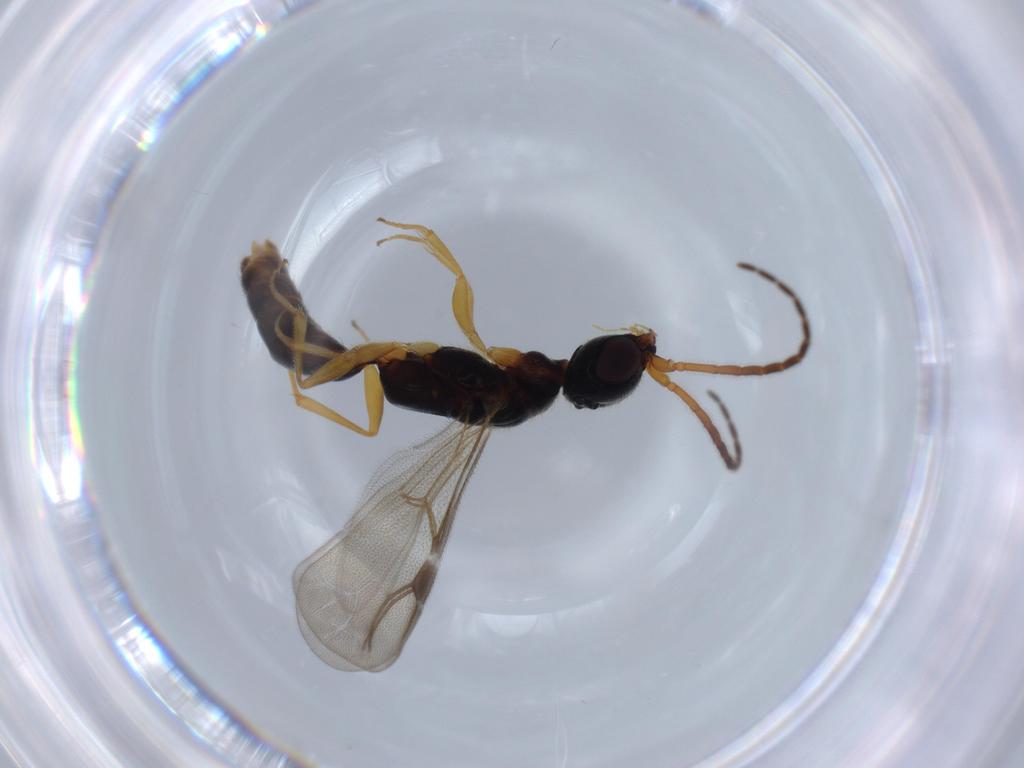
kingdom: Animalia
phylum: Arthropoda
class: Insecta
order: Hymenoptera
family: Bethylidae
